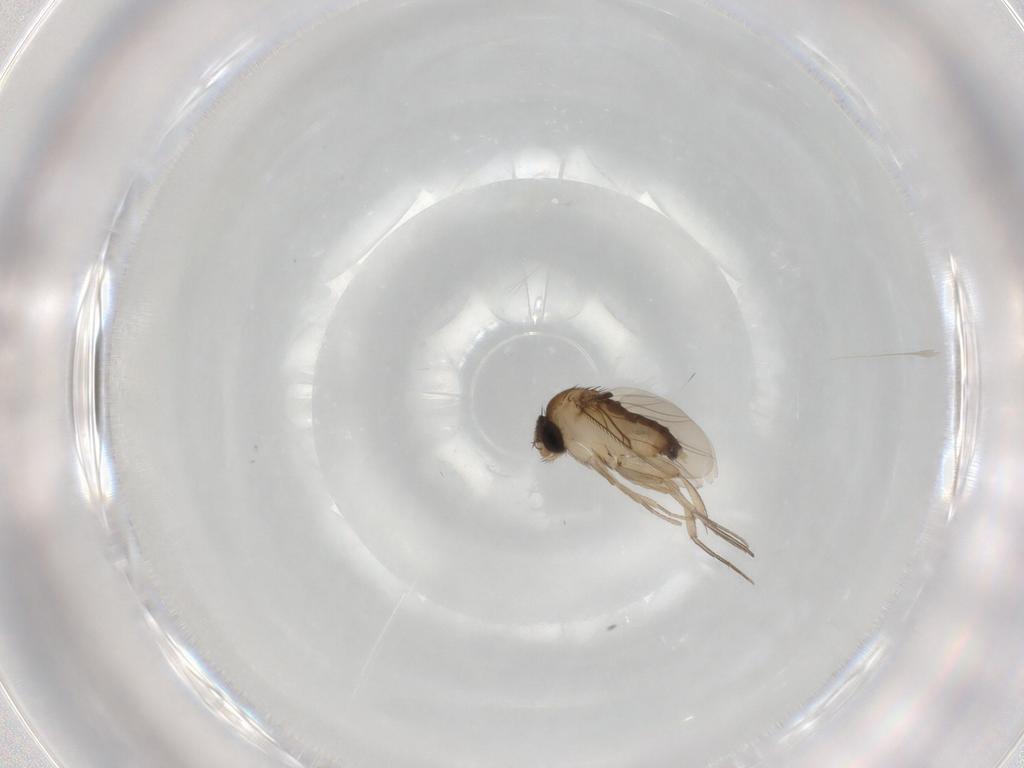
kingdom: Animalia
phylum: Arthropoda
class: Insecta
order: Diptera
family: Phoridae
